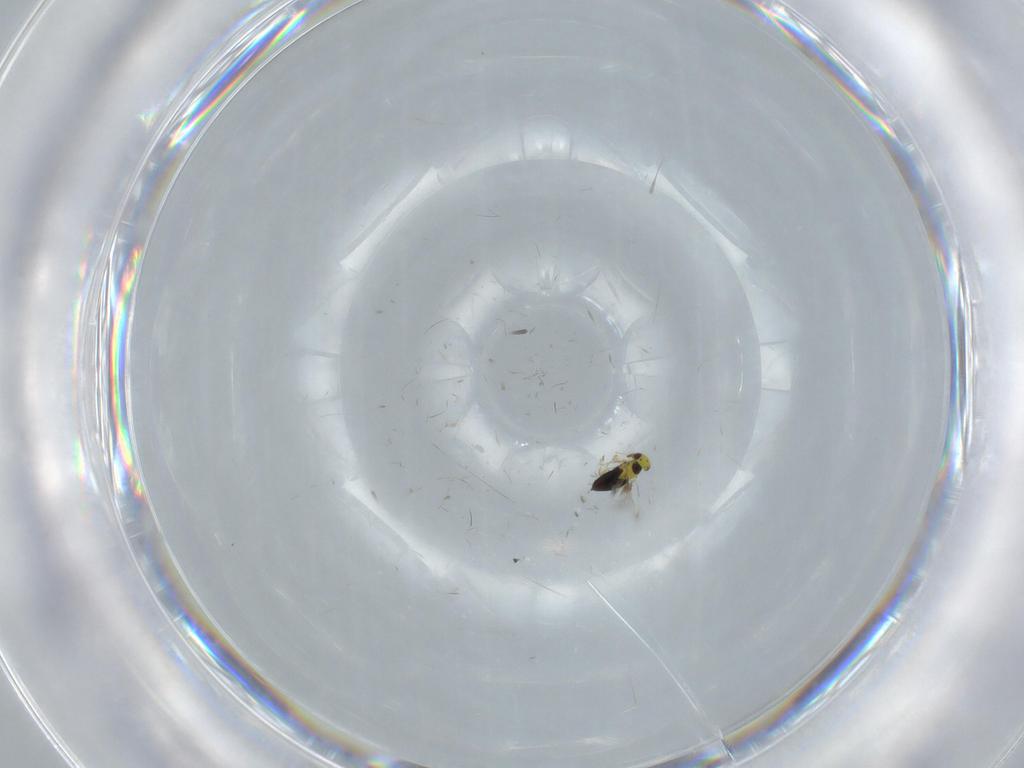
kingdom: Animalia
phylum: Arthropoda
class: Insecta
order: Hymenoptera
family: Signiphoridae
